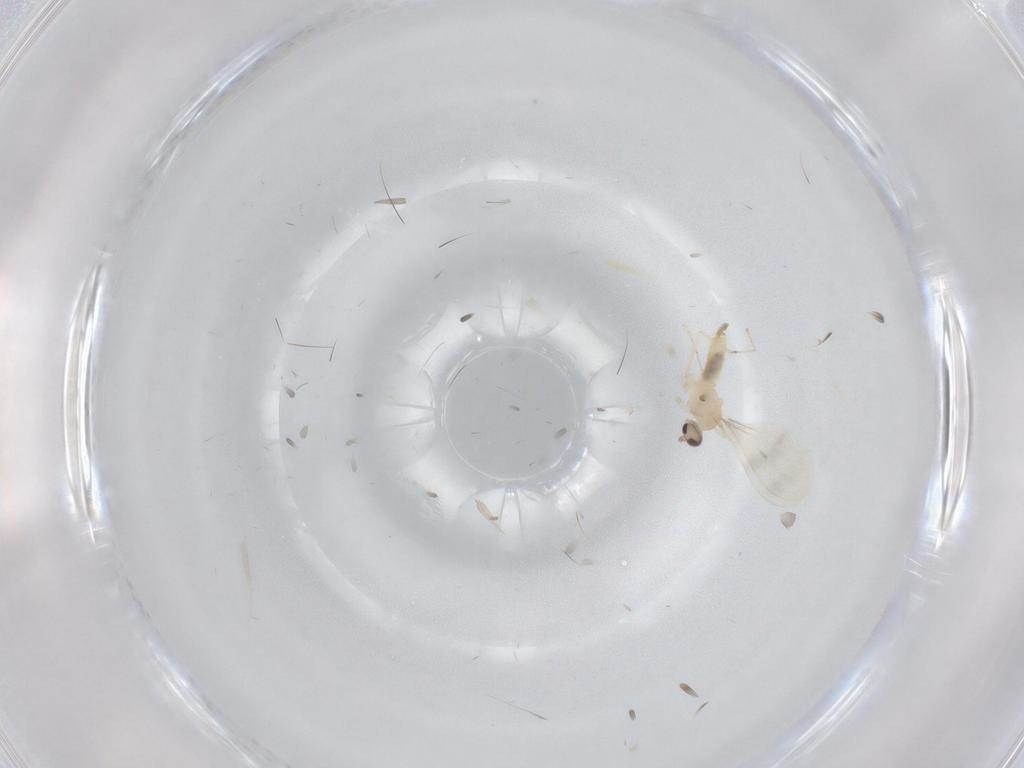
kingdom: Animalia
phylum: Arthropoda
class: Insecta
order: Diptera
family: Cecidomyiidae
